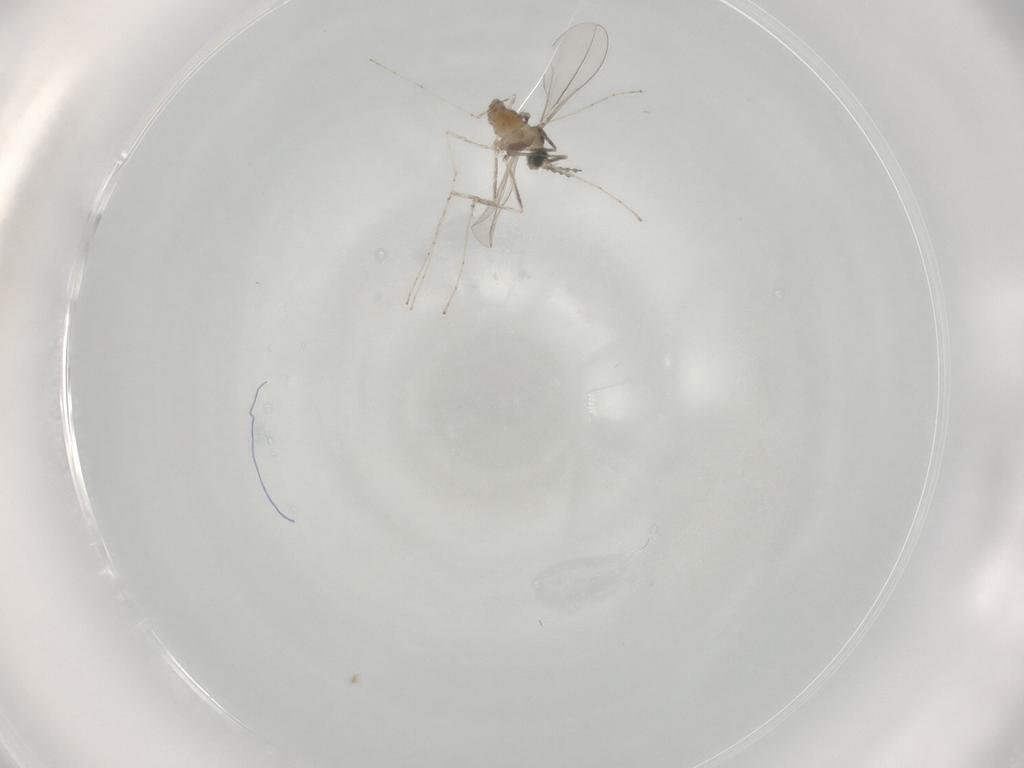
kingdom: Animalia
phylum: Arthropoda
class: Insecta
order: Diptera
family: Cecidomyiidae
